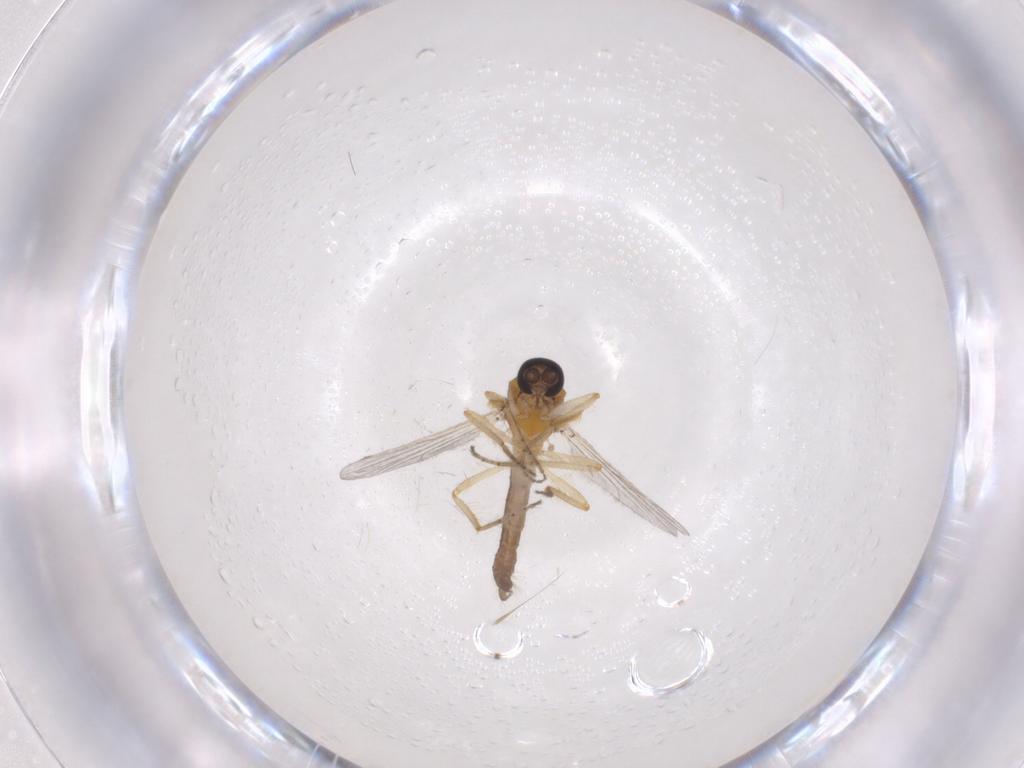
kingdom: Animalia
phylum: Arthropoda
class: Insecta
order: Diptera
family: Ceratopogonidae
